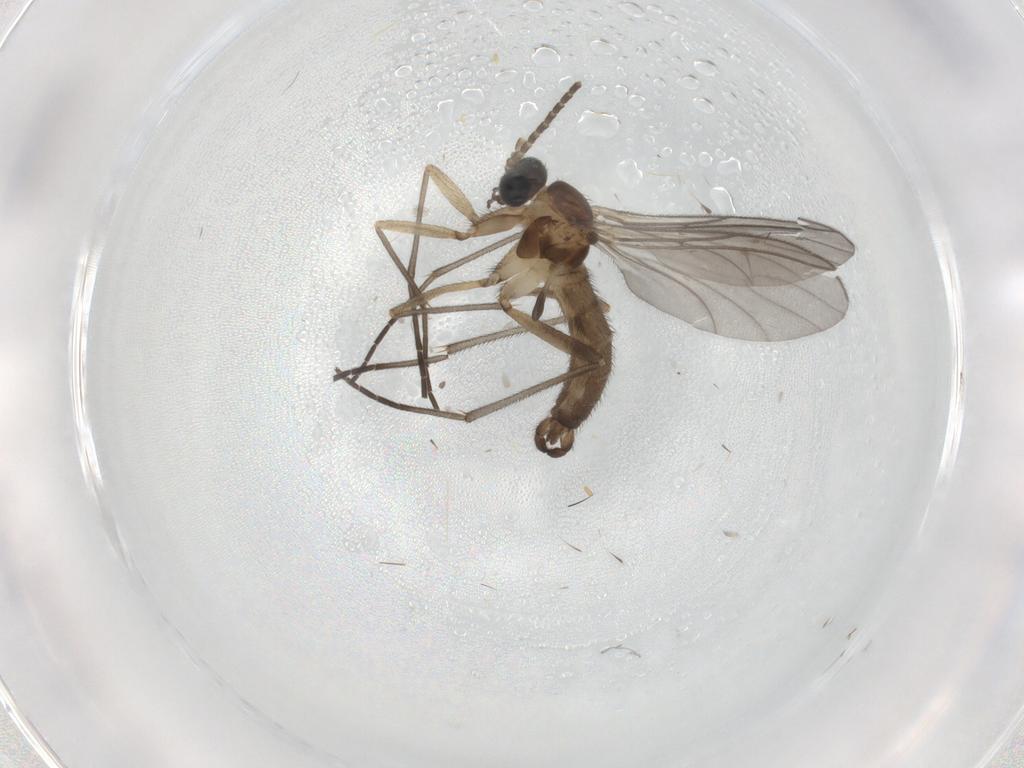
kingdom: Animalia
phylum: Arthropoda
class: Insecta
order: Diptera
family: Sciaridae
